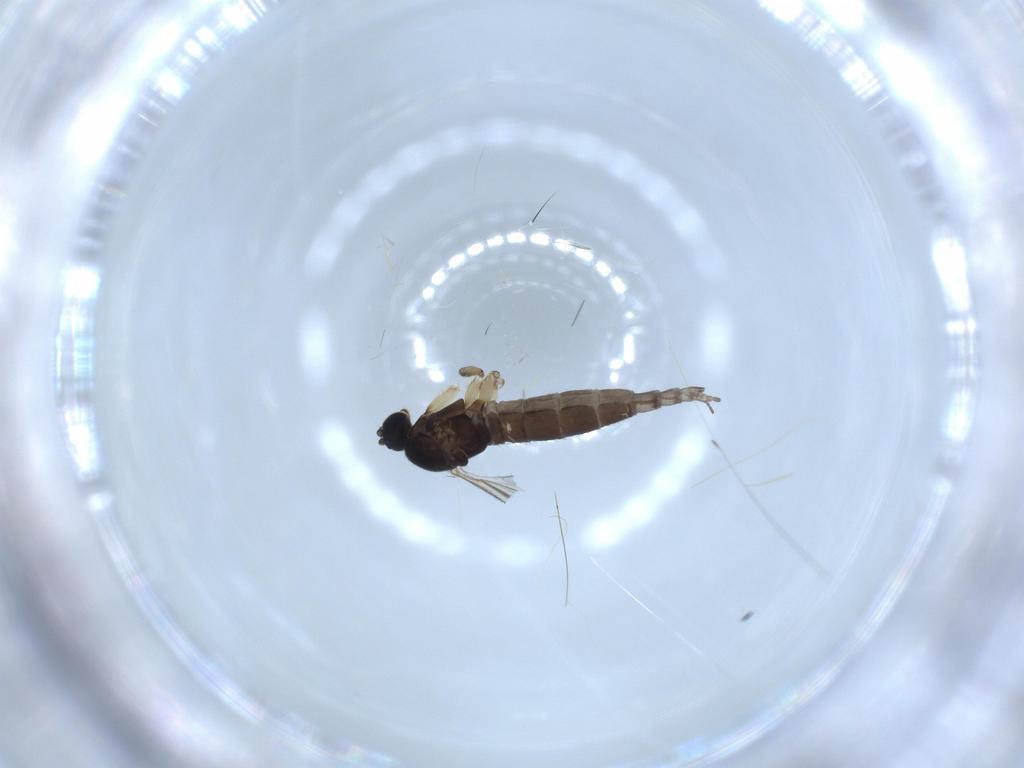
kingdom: Animalia
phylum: Arthropoda
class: Insecta
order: Diptera
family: Sciaridae
